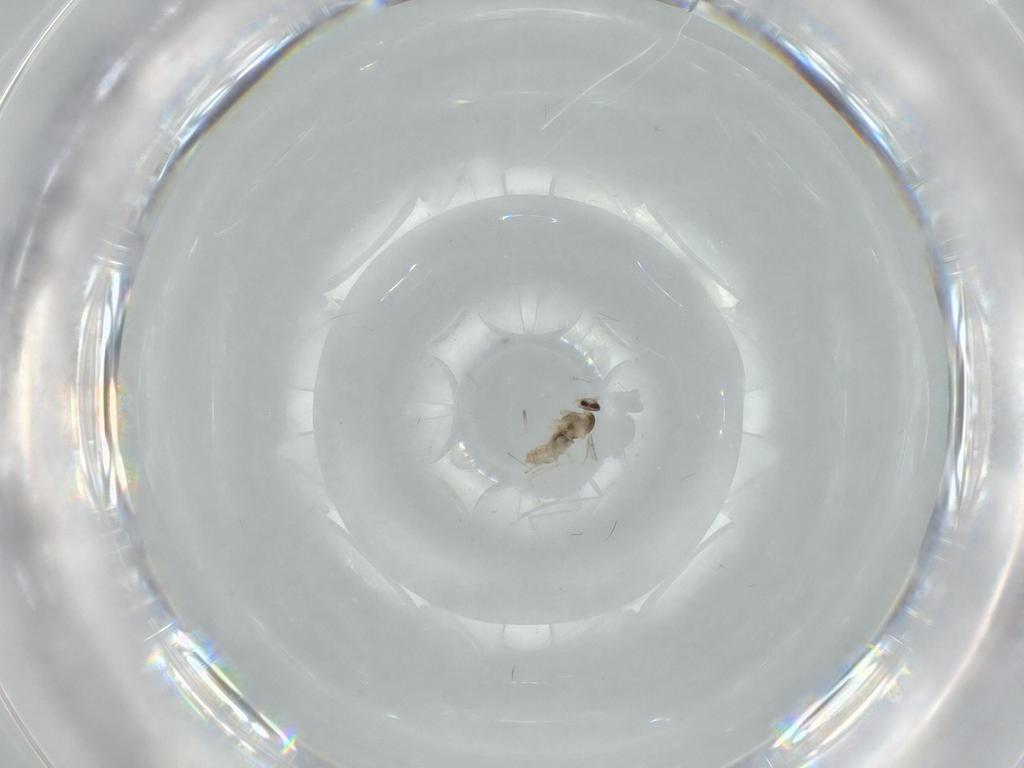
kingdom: Animalia
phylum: Arthropoda
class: Insecta
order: Diptera
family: Cecidomyiidae
